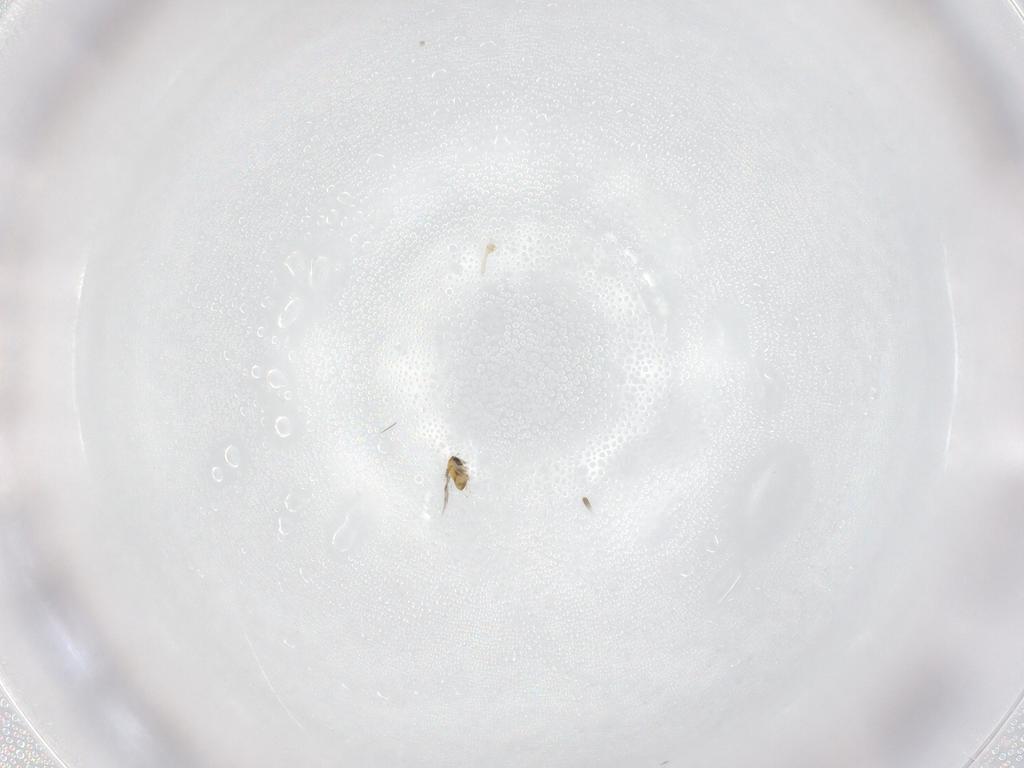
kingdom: Animalia
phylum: Arthropoda
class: Insecta
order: Hymenoptera
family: Trichogrammatidae
